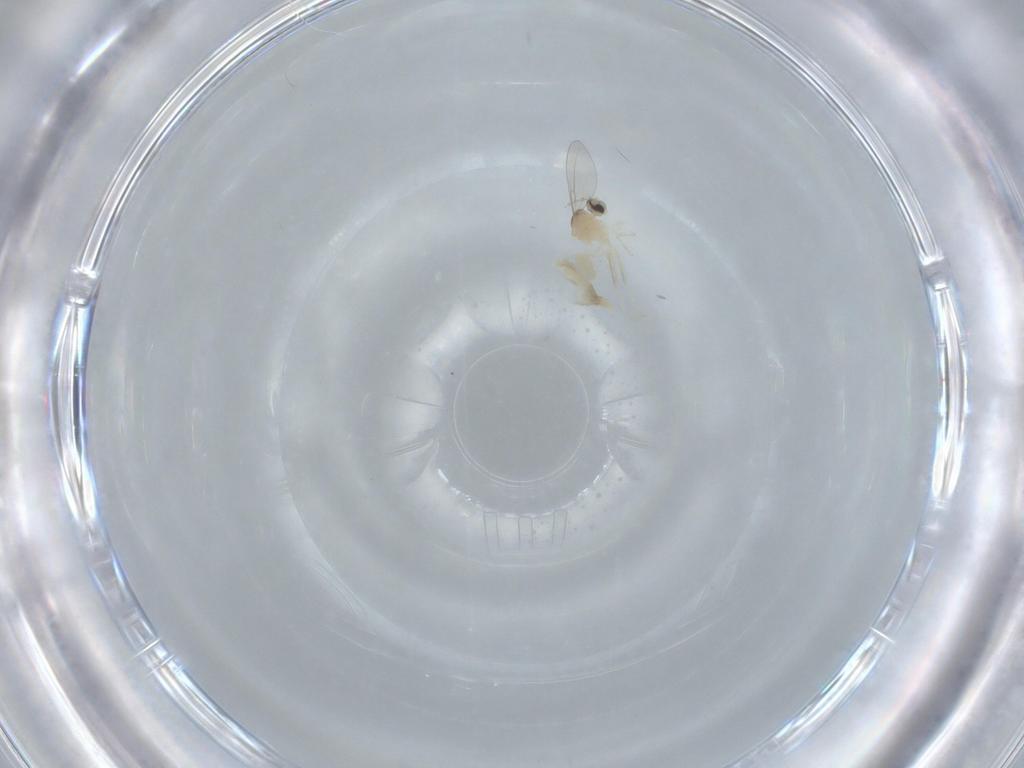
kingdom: Animalia
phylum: Arthropoda
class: Insecta
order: Diptera
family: Cecidomyiidae
